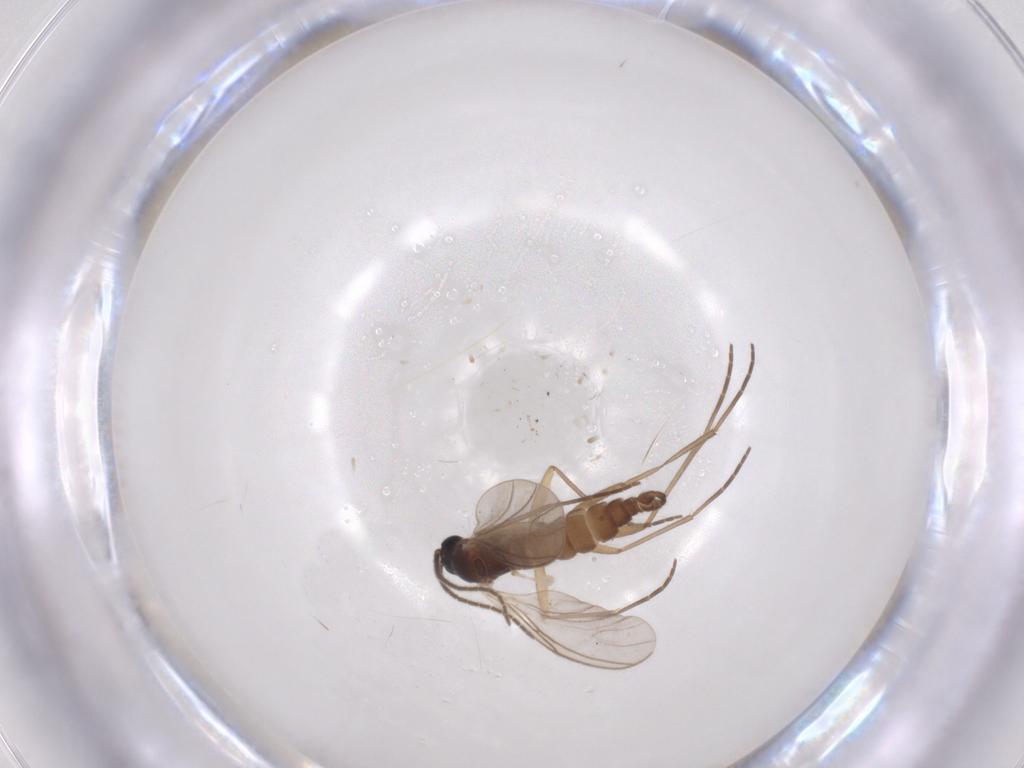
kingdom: Animalia
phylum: Arthropoda
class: Insecta
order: Diptera
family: Sciaridae
